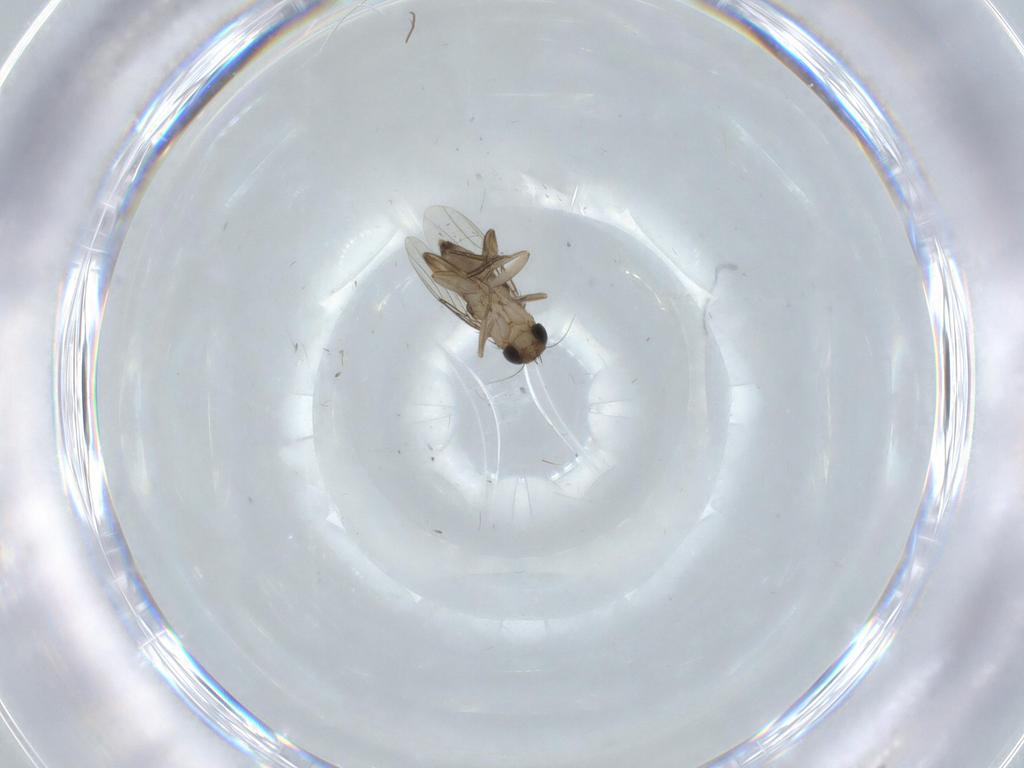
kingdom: Animalia
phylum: Arthropoda
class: Insecta
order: Diptera
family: Phoridae
